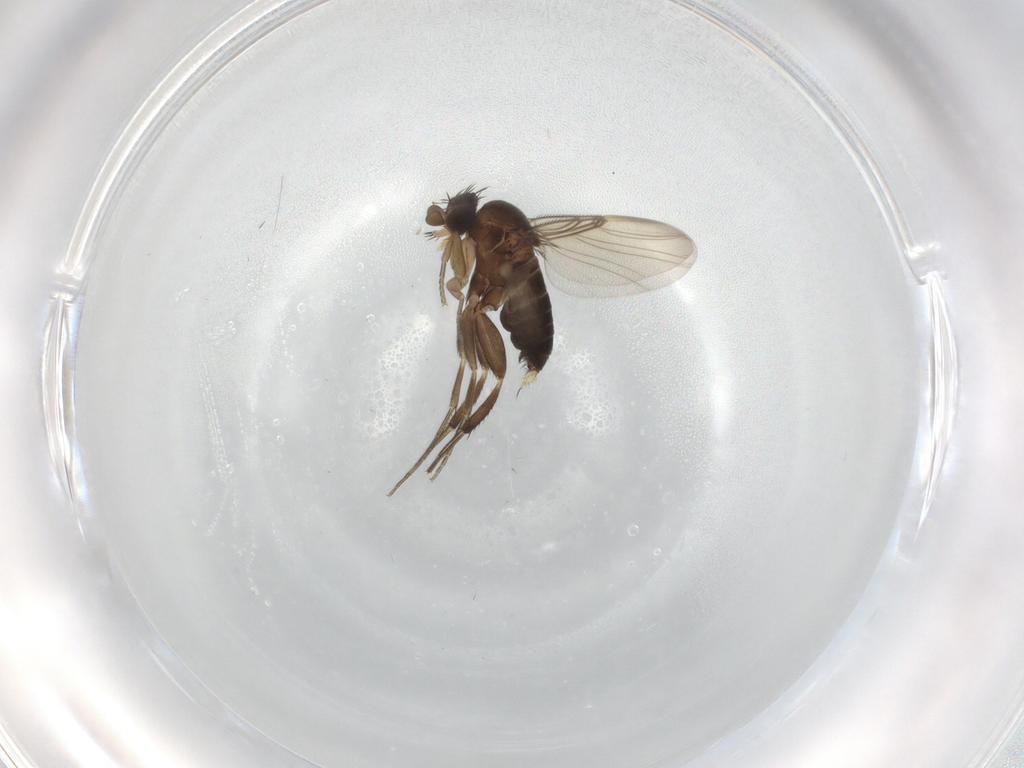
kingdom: Animalia
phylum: Arthropoda
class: Insecta
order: Diptera
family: Phoridae
